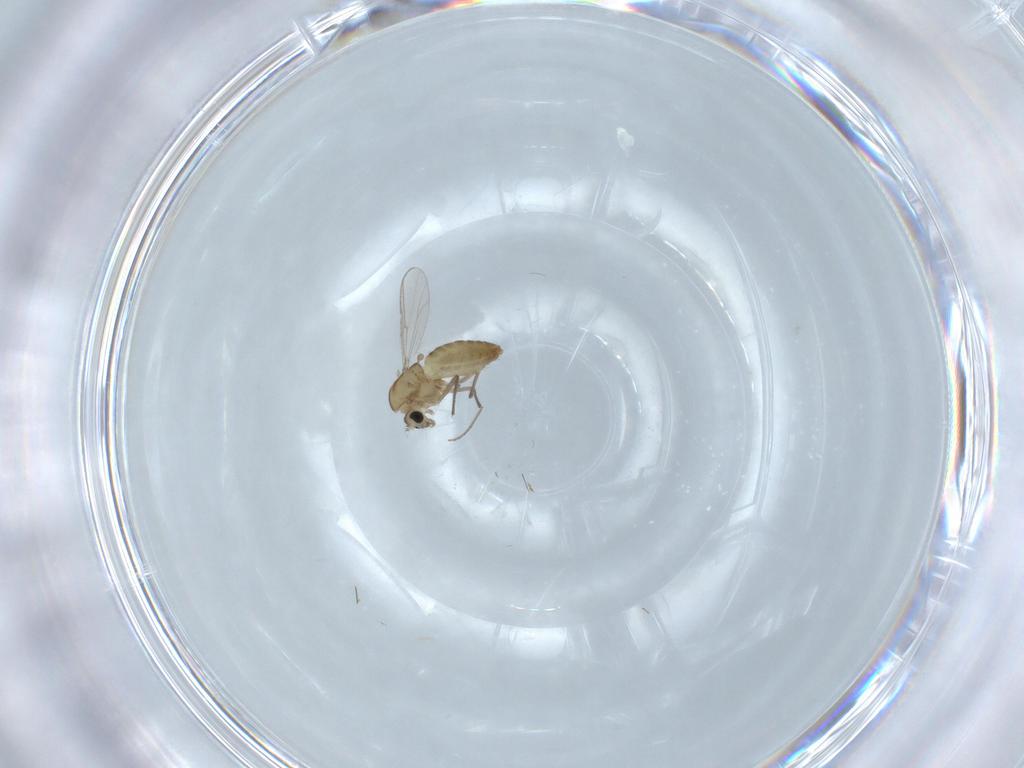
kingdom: Animalia
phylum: Arthropoda
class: Insecta
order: Diptera
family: Chironomidae
